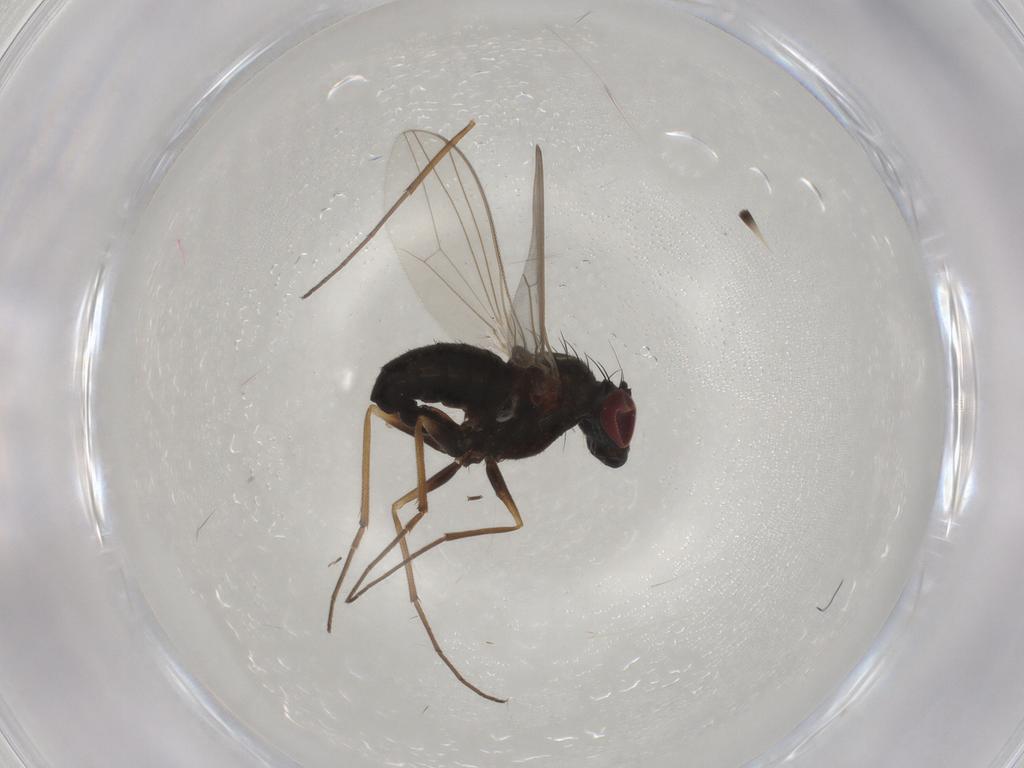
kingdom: Animalia
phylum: Arthropoda
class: Insecta
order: Diptera
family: Dolichopodidae
